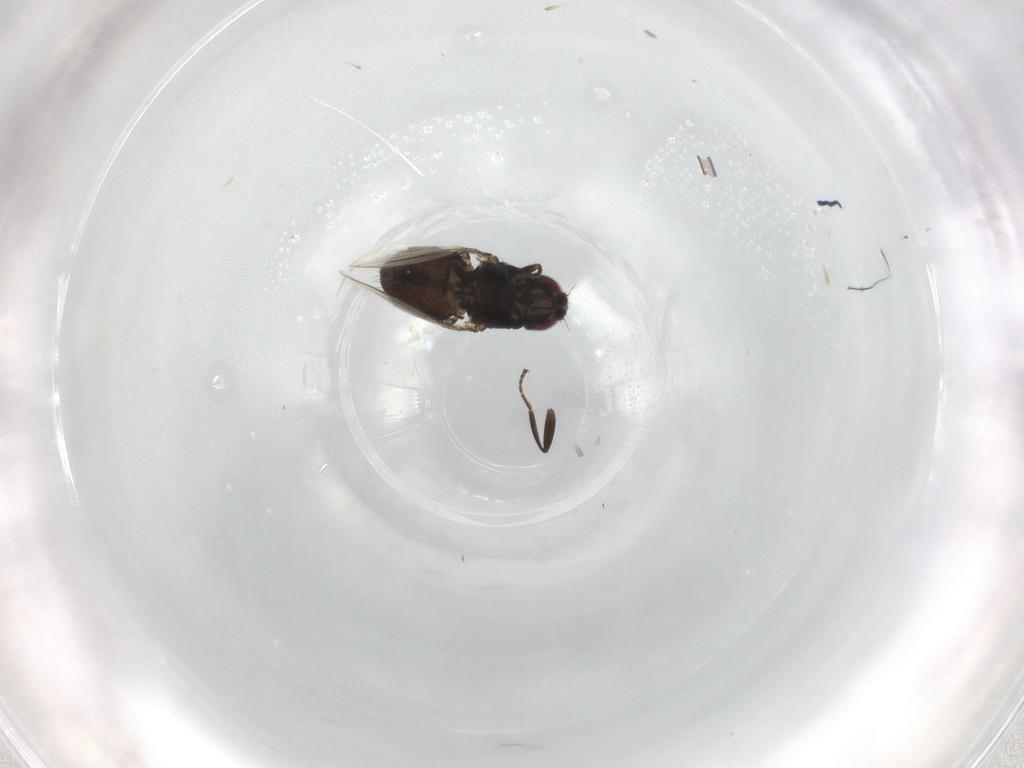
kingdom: Animalia
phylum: Arthropoda
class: Insecta
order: Diptera
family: Carnidae
